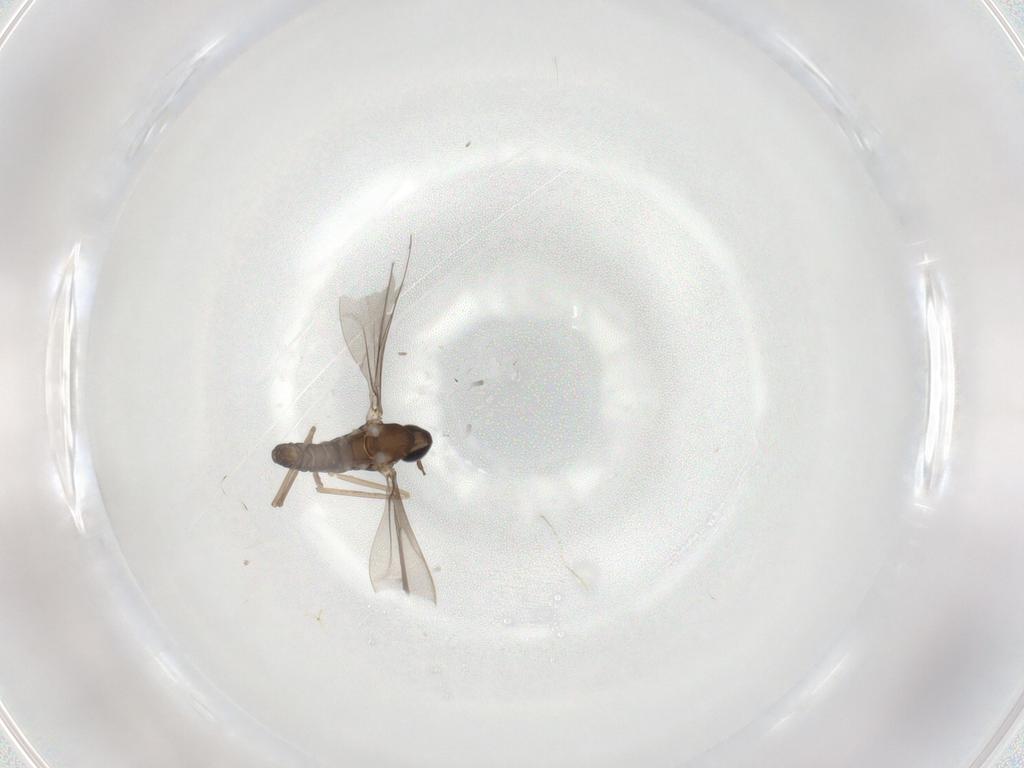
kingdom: Animalia
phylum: Arthropoda
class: Insecta
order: Diptera
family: Cecidomyiidae
